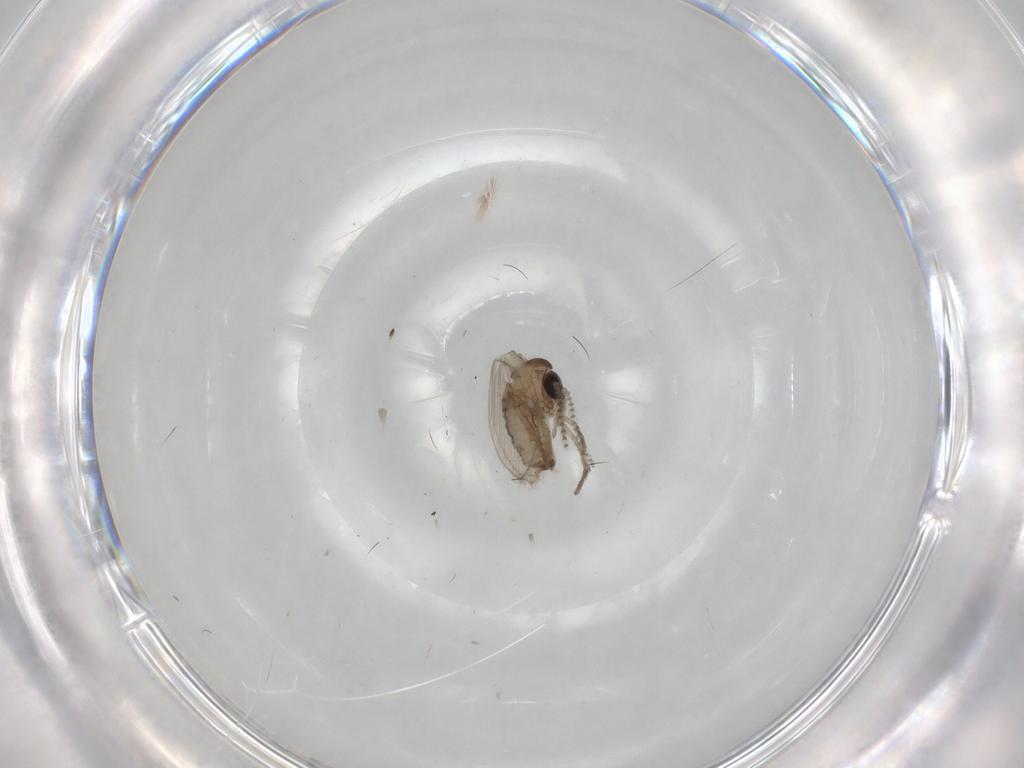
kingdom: Animalia
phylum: Arthropoda
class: Insecta
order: Diptera
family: Psychodidae
